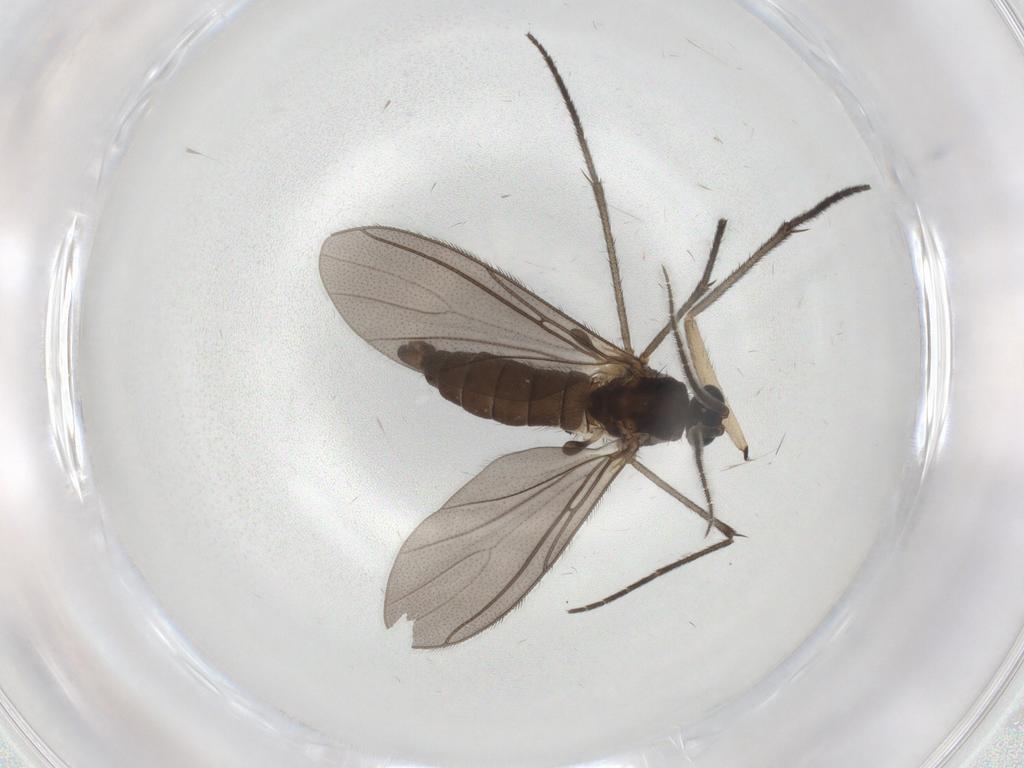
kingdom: Animalia
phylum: Arthropoda
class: Insecta
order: Diptera
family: Sciaridae
